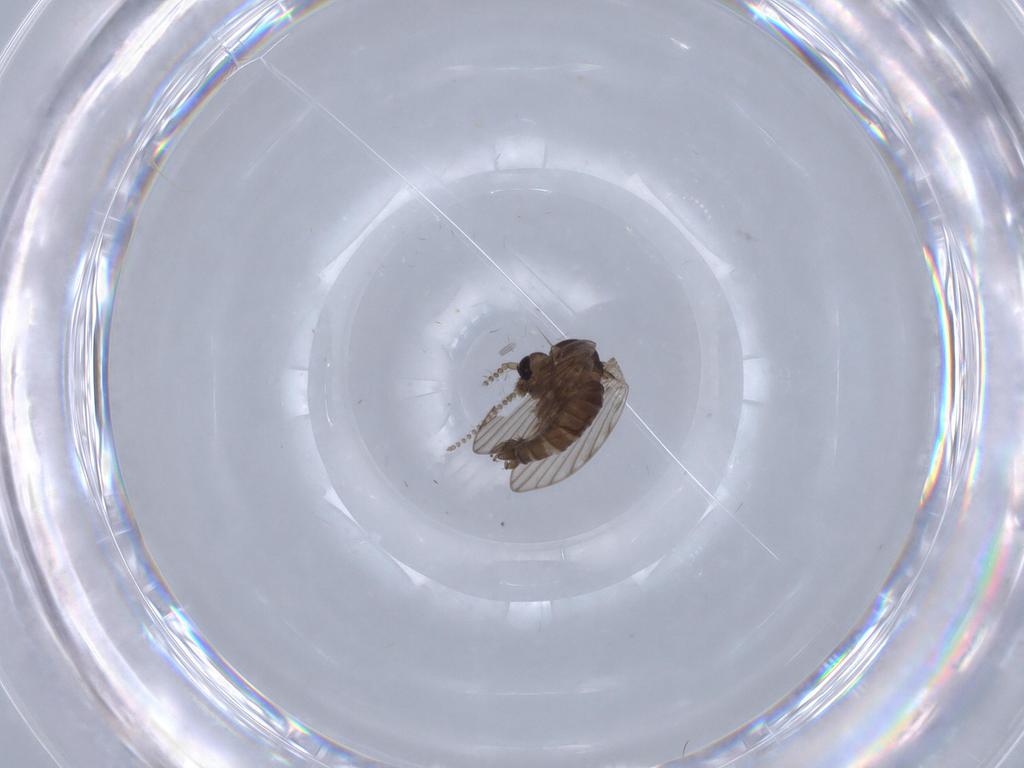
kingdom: Animalia
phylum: Arthropoda
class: Insecta
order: Diptera
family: Psychodidae
